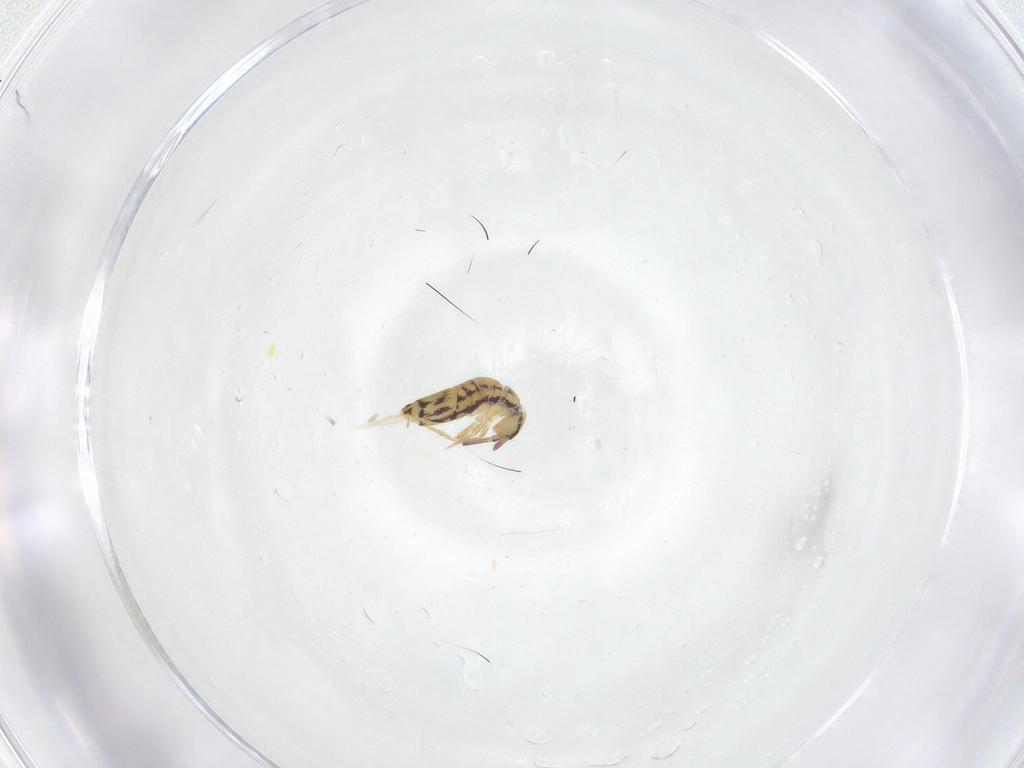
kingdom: Animalia
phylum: Arthropoda
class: Collembola
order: Entomobryomorpha
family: Entomobryidae
